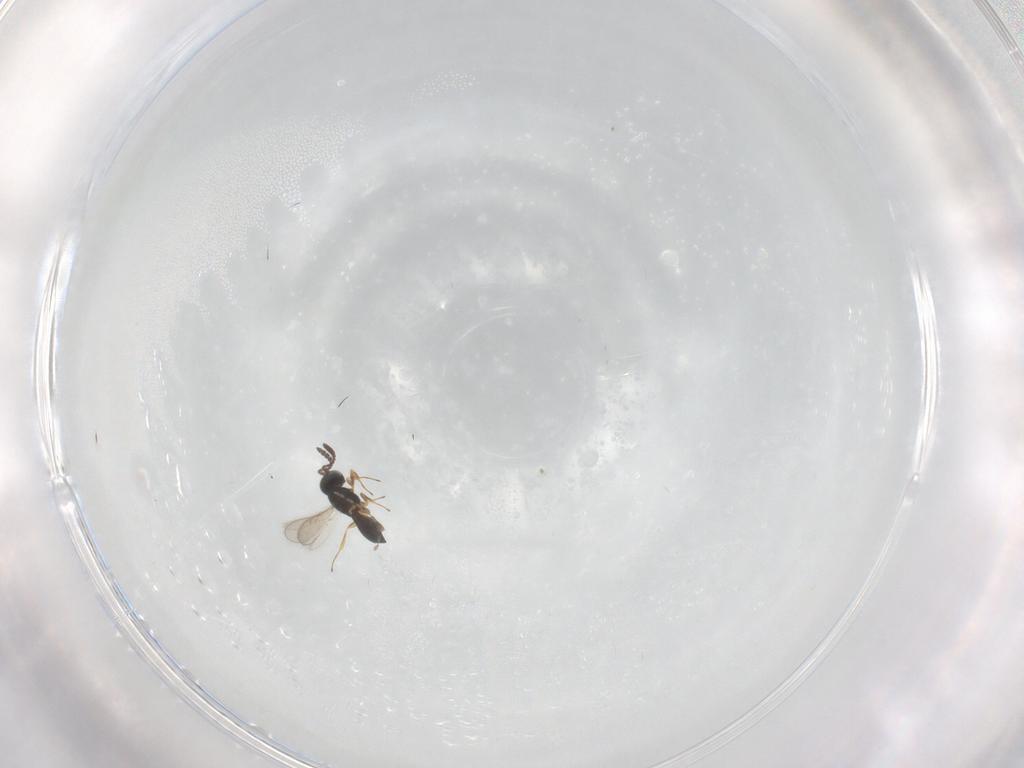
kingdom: Animalia
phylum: Arthropoda
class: Insecta
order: Hymenoptera
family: Scelionidae
